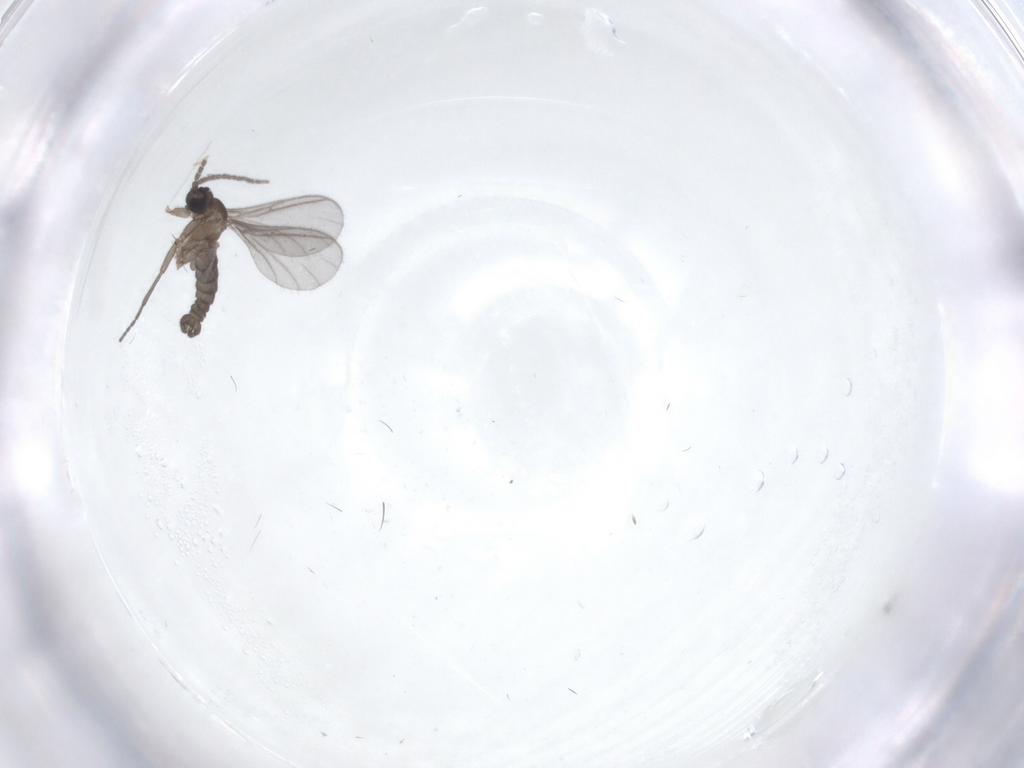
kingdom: Animalia
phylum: Arthropoda
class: Insecta
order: Diptera
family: Sciaridae
